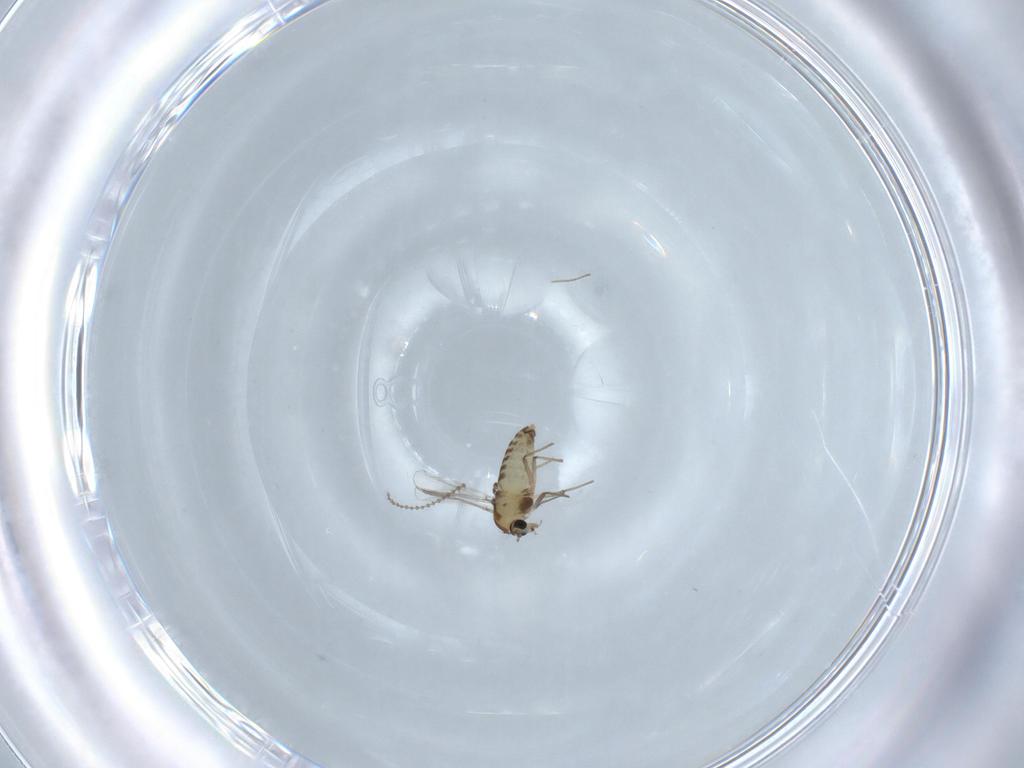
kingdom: Animalia
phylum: Arthropoda
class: Insecta
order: Diptera
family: Chironomidae
